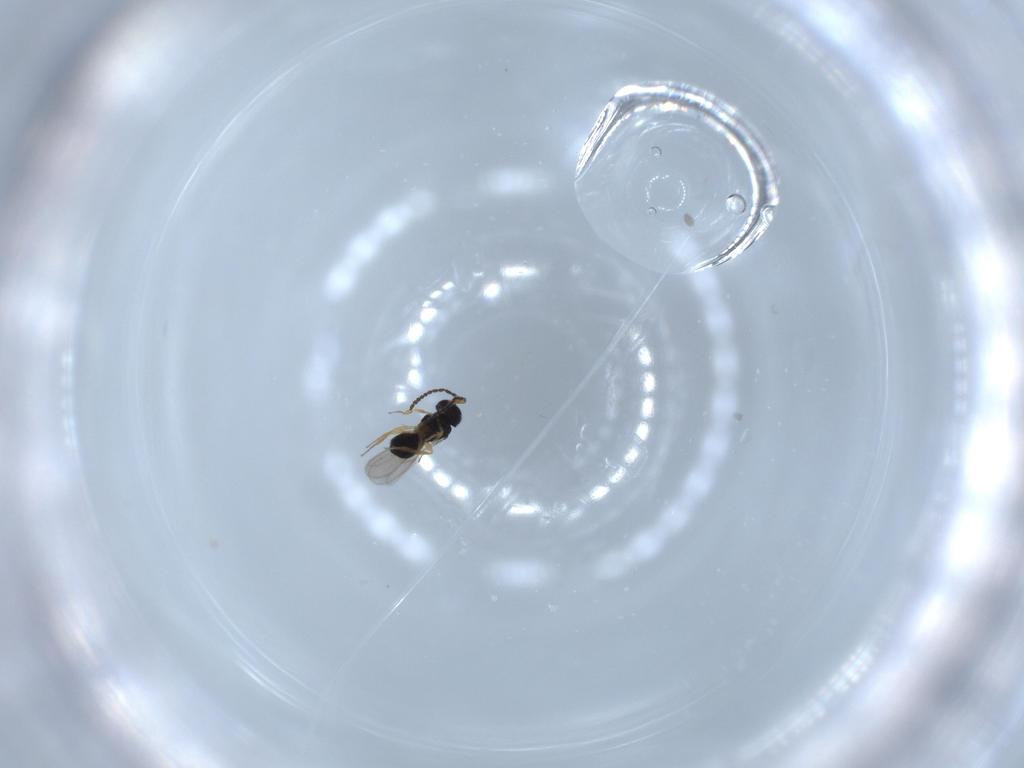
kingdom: Animalia
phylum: Arthropoda
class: Insecta
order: Hymenoptera
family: Scelionidae
